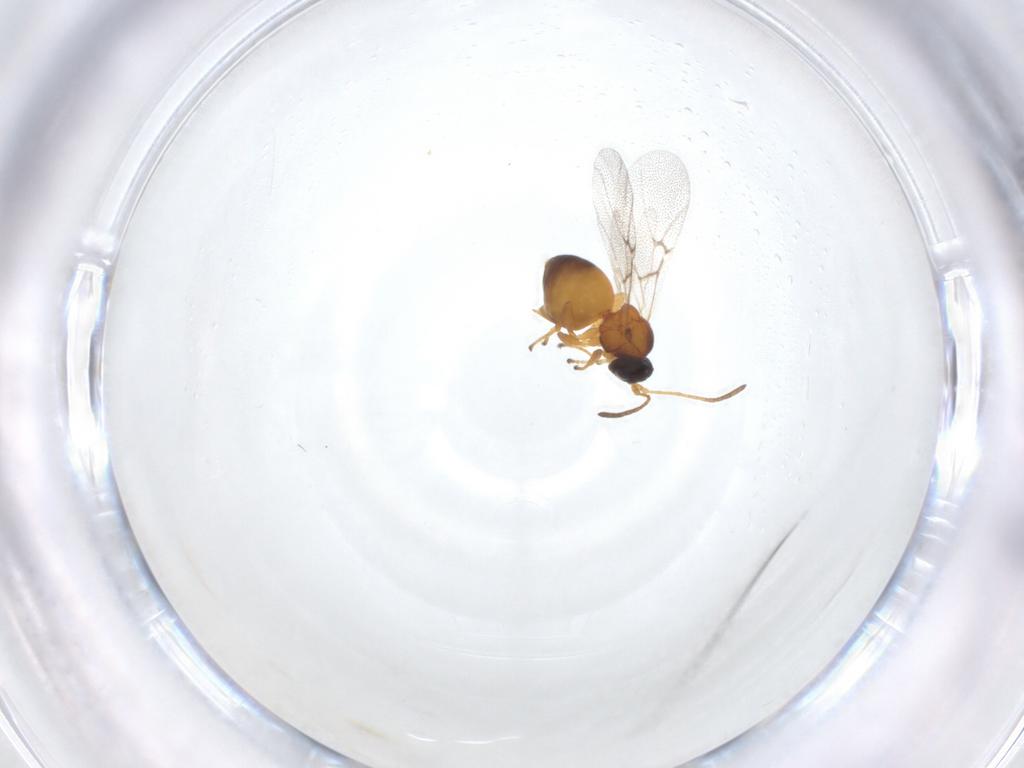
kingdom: Animalia
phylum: Arthropoda
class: Insecta
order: Hymenoptera
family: Cynipidae
